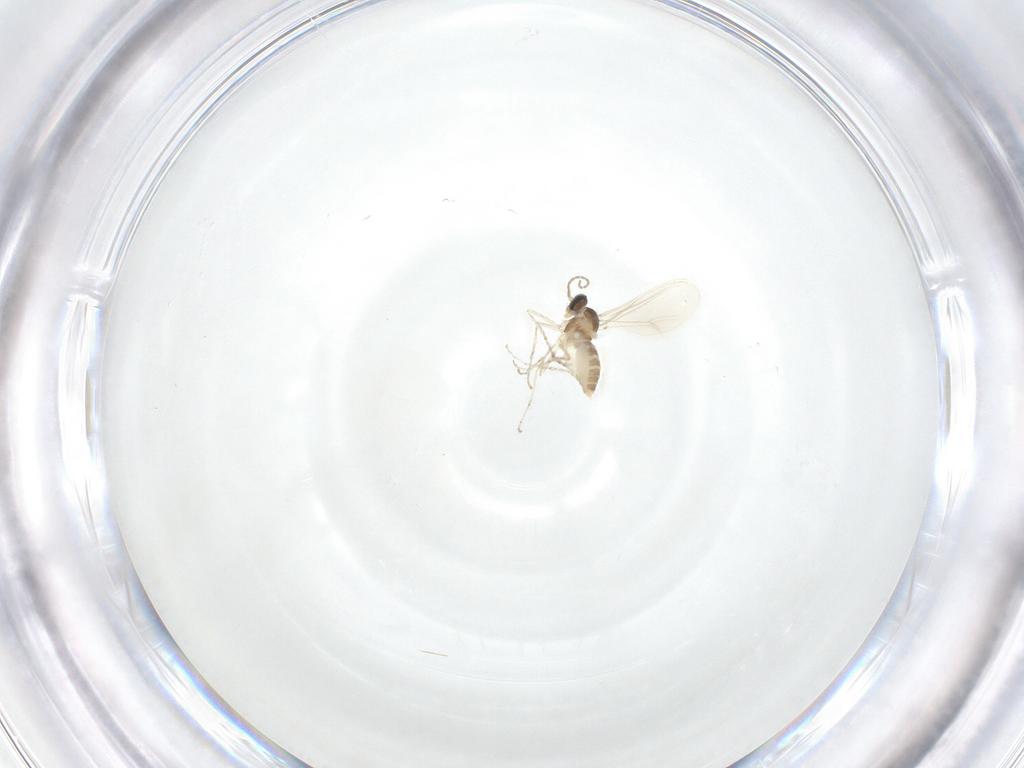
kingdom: Animalia
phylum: Arthropoda
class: Insecta
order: Diptera
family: Cecidomyiidae
